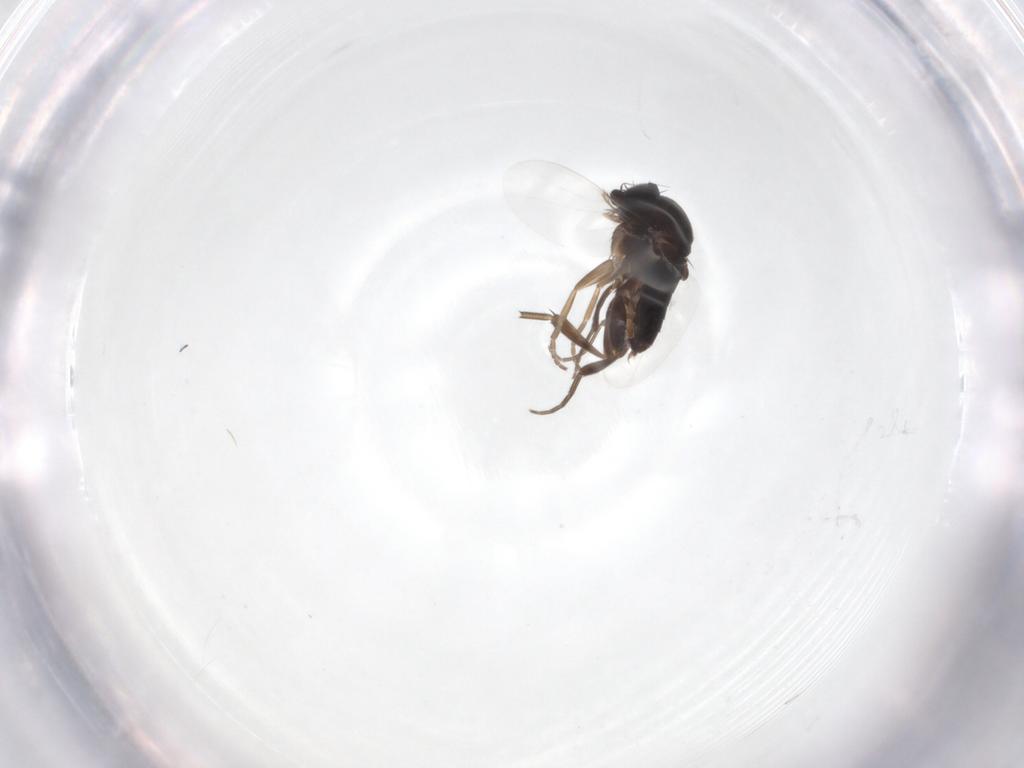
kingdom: Animalia
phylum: Arthropoda
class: Insecta
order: Diptera
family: Phoridae
